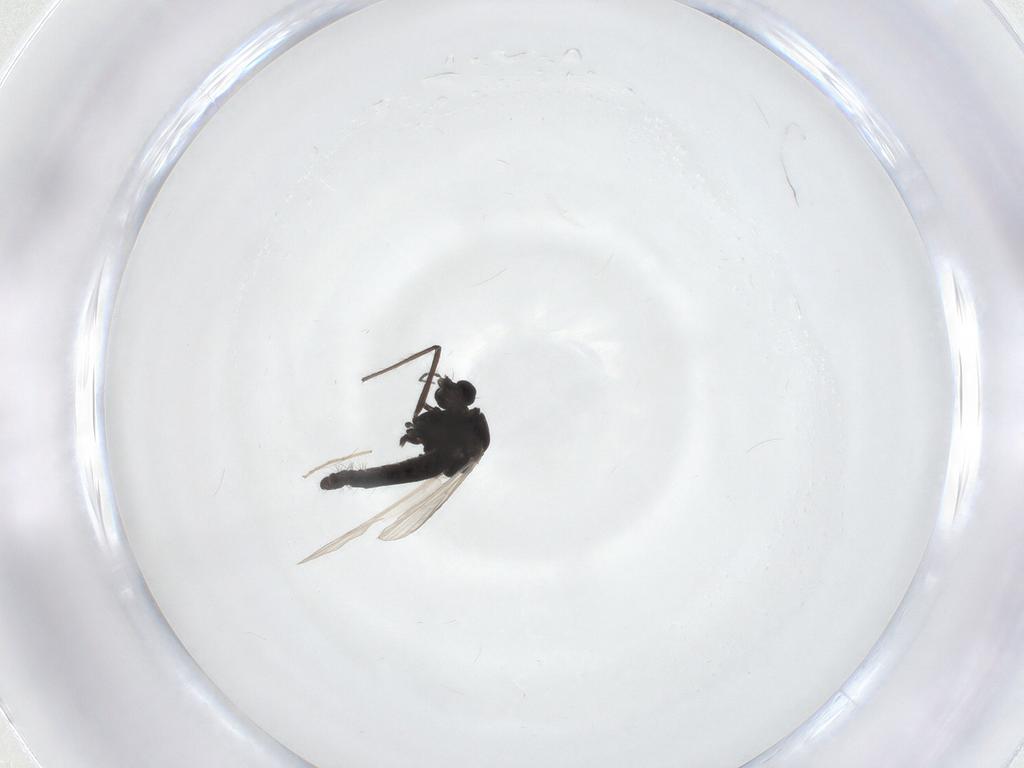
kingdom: Animalia
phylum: Arthropoda
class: Insecta
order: Diptera
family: Chironomidae
